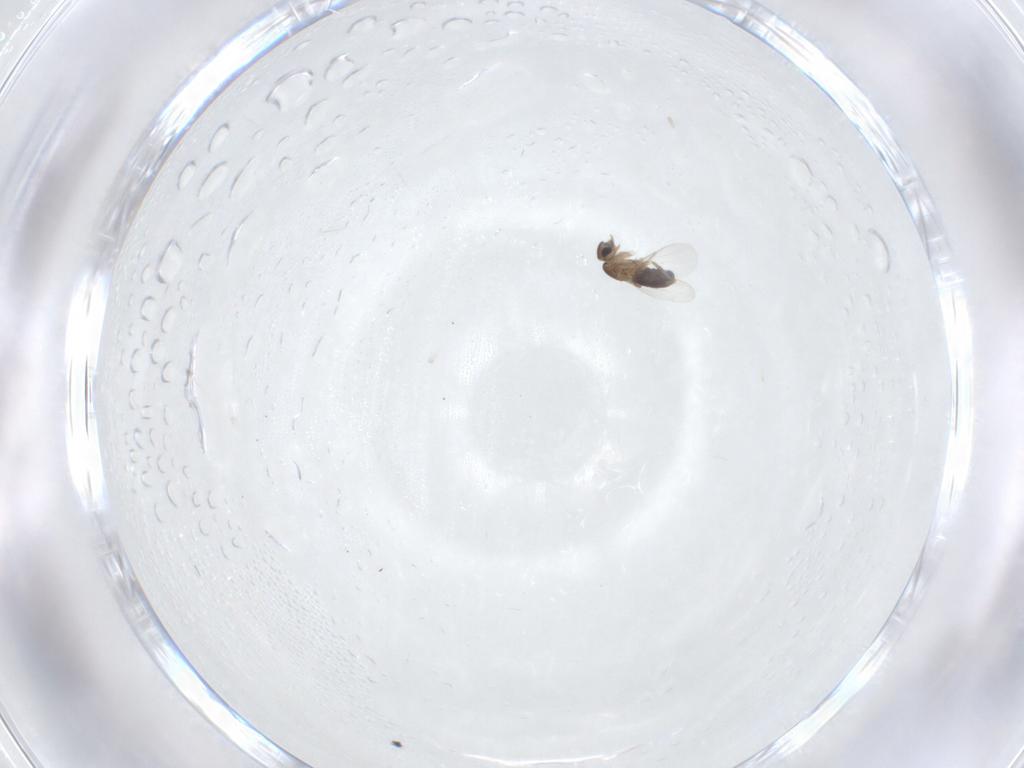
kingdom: Animalia
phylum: Arthropoda
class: Insecta
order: Diptera
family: Phoridae
